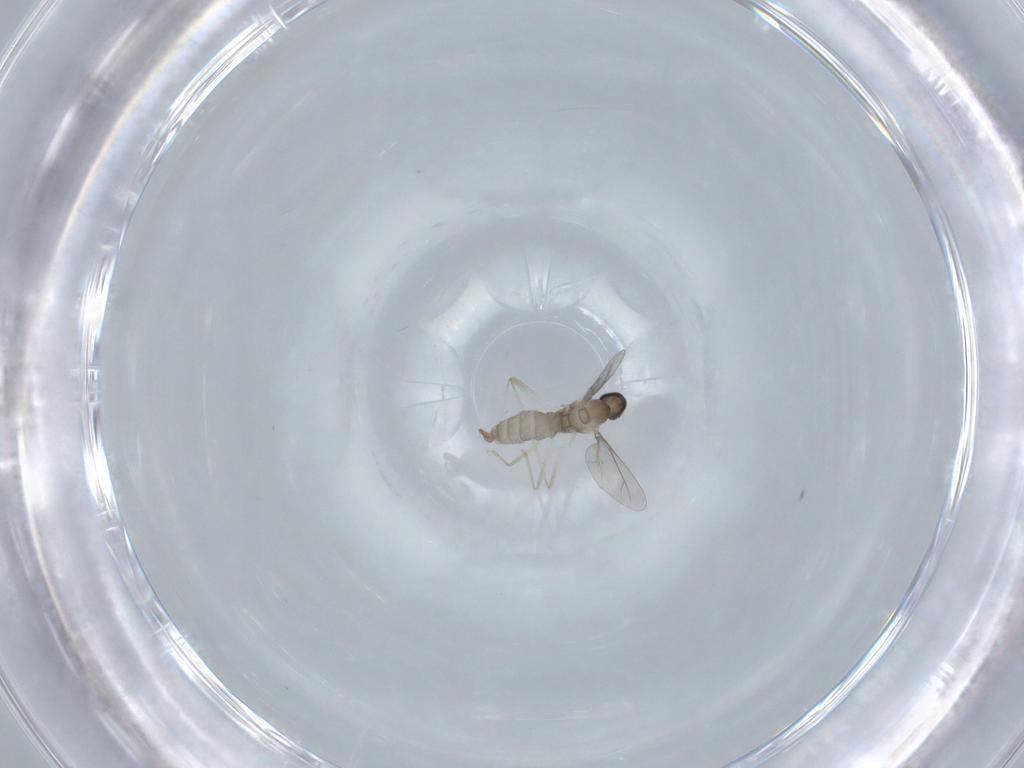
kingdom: Animalia
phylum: Arthropoda
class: Insecta
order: Diptera
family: Cecidomyiidae
